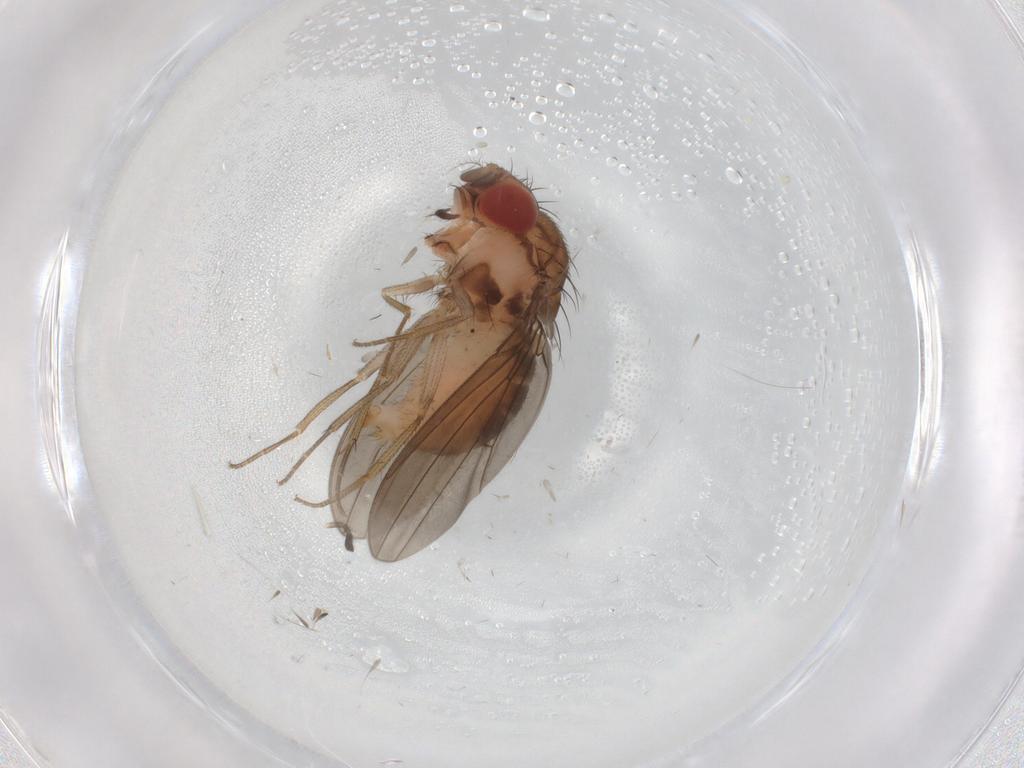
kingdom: Animalia
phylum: Arthropoda
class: Insecta
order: Diptera
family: Drosophilidae
